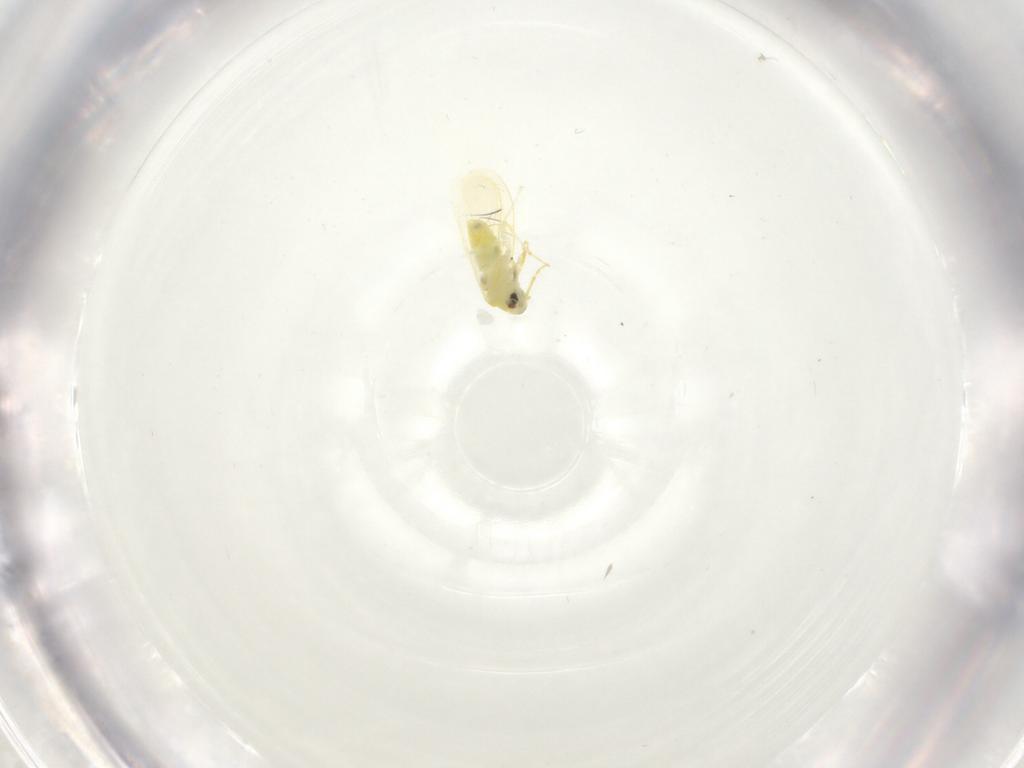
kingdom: Animalia
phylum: Arthropoda
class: Insecta
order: Hemiptera
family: Aleyrodidae
